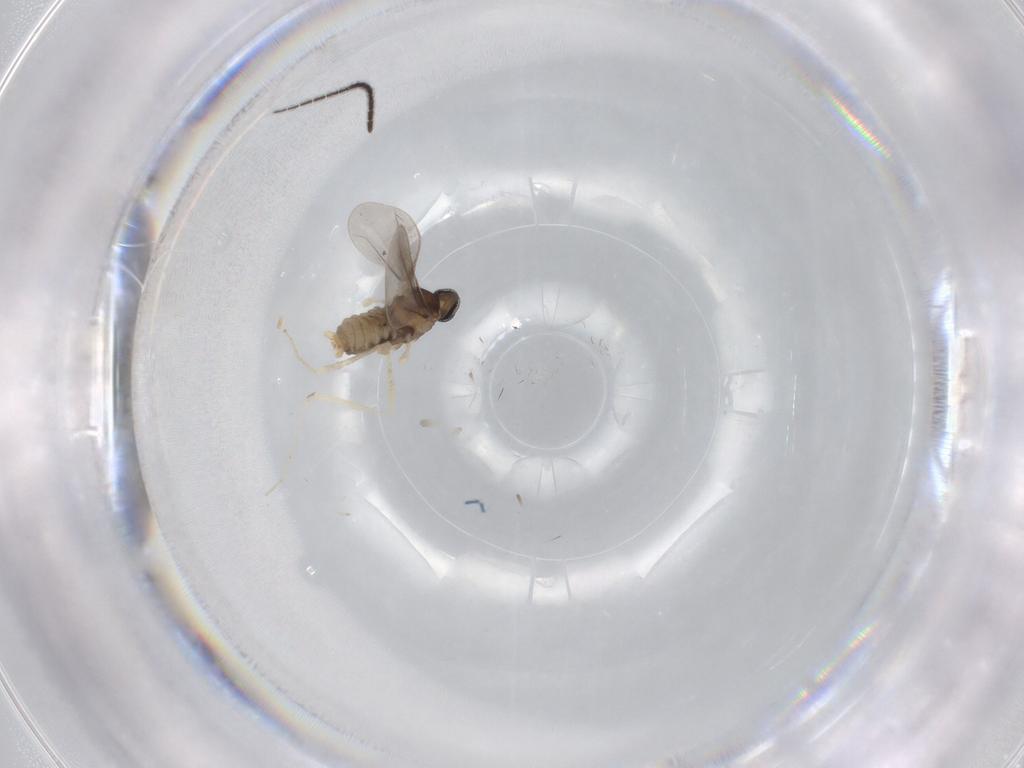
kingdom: Animalia
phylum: Arthropoda
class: Insecta
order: Diptera
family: Cecidomyiidae
